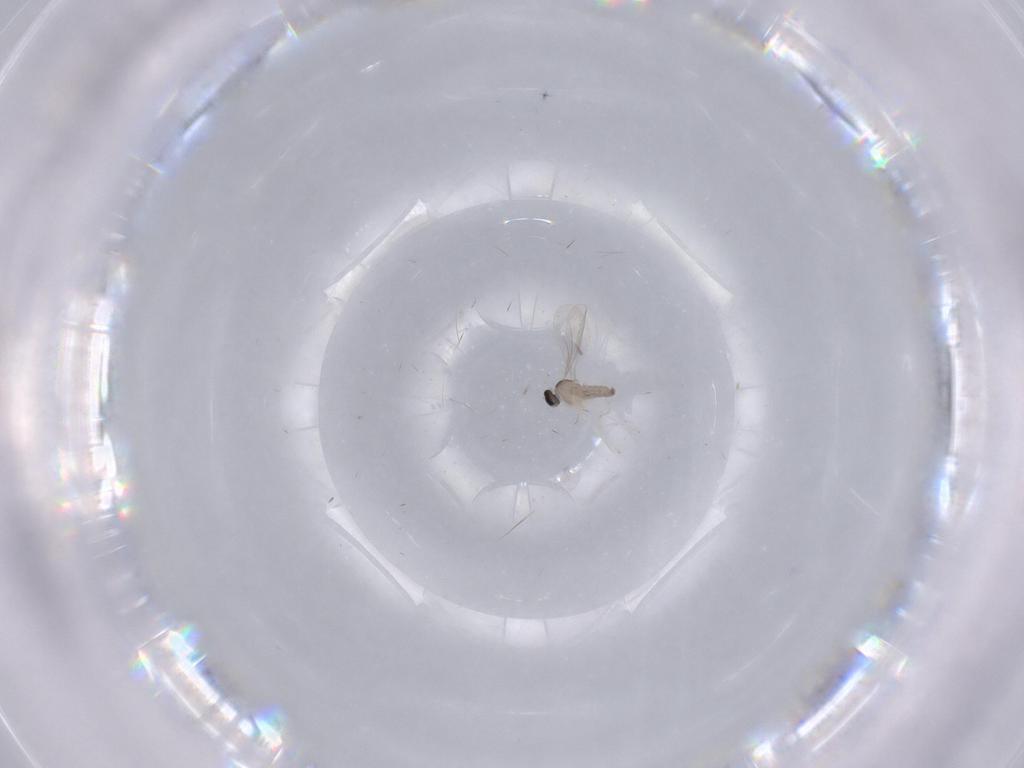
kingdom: Animalia
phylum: Arthropoda
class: Insecta
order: Diptera
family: Cecidomyiidae
